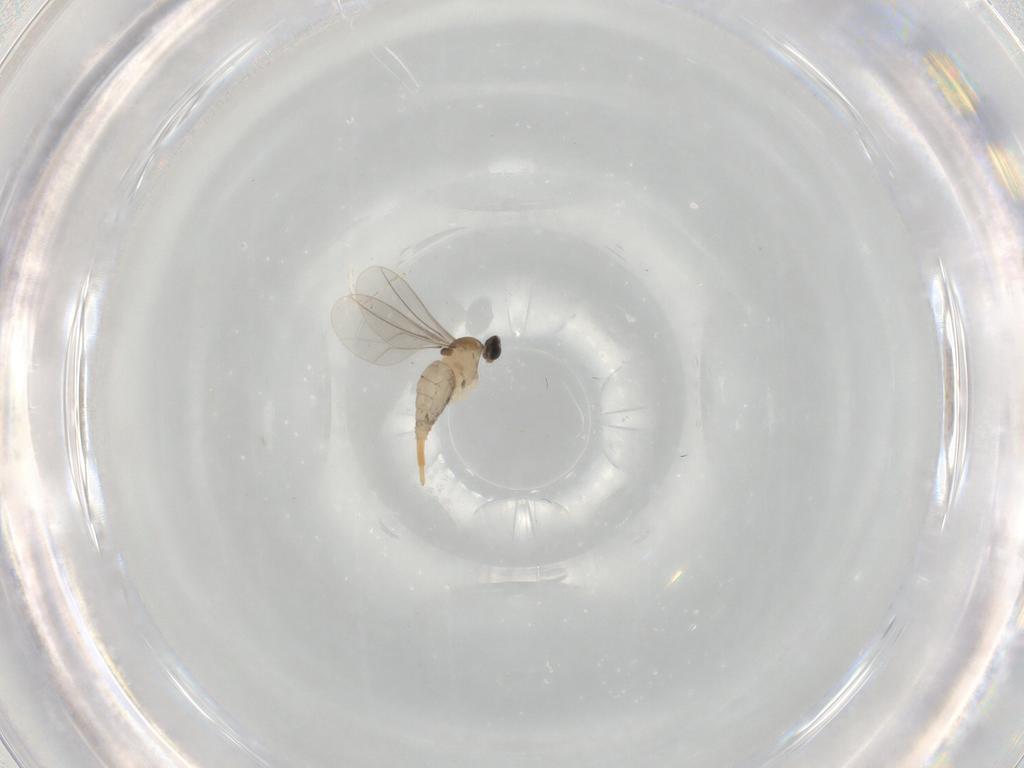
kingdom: Animalia
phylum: Arthropoda
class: Insecta
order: Diptera
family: Cecidomyiidae
